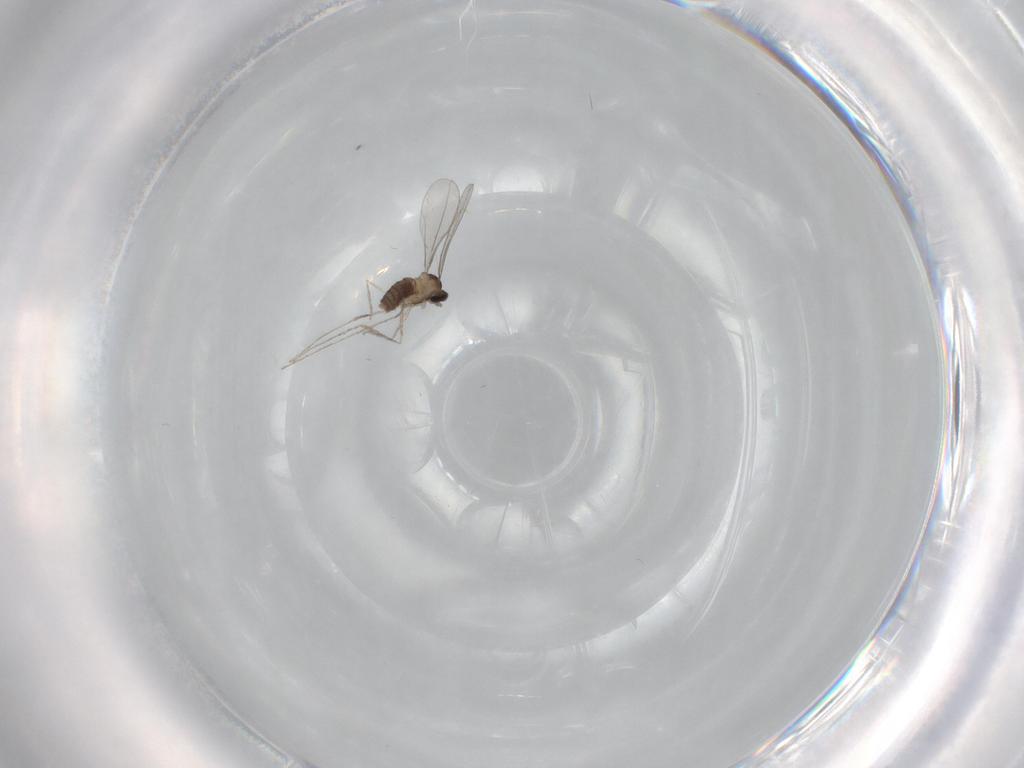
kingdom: Animalia
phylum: Arthropoda
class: Insecta
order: Diptera
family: Cecidomyiidae
